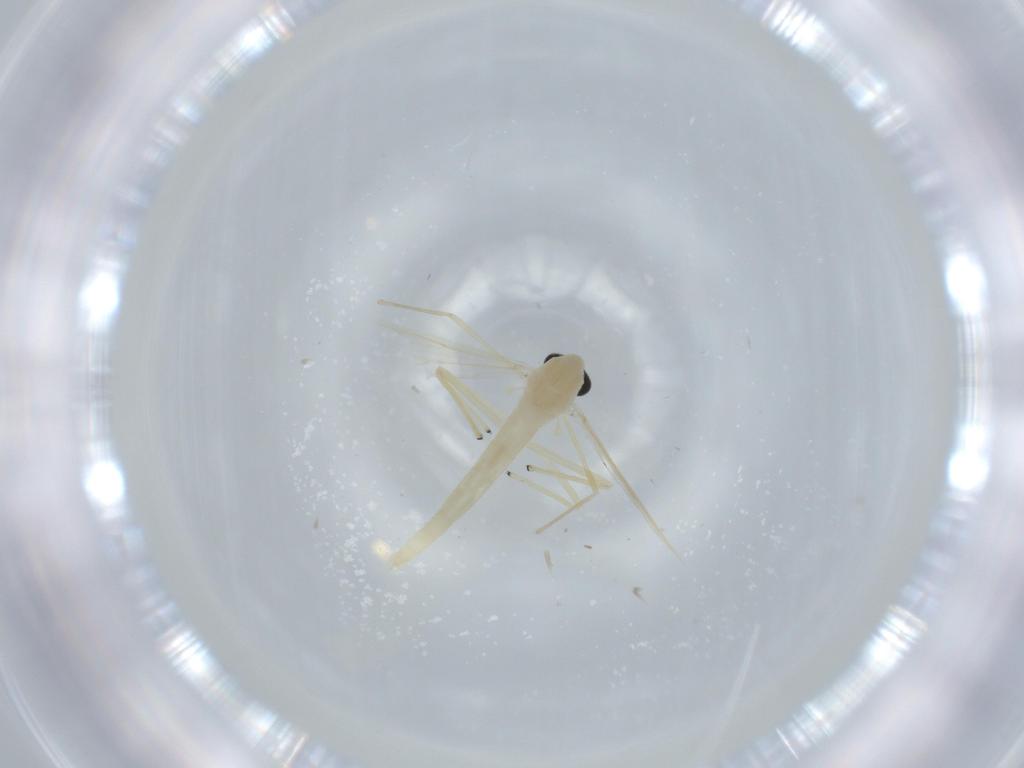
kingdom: Animalia
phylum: Arthropoda
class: Insecta
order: Diptera
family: Chironomidae
